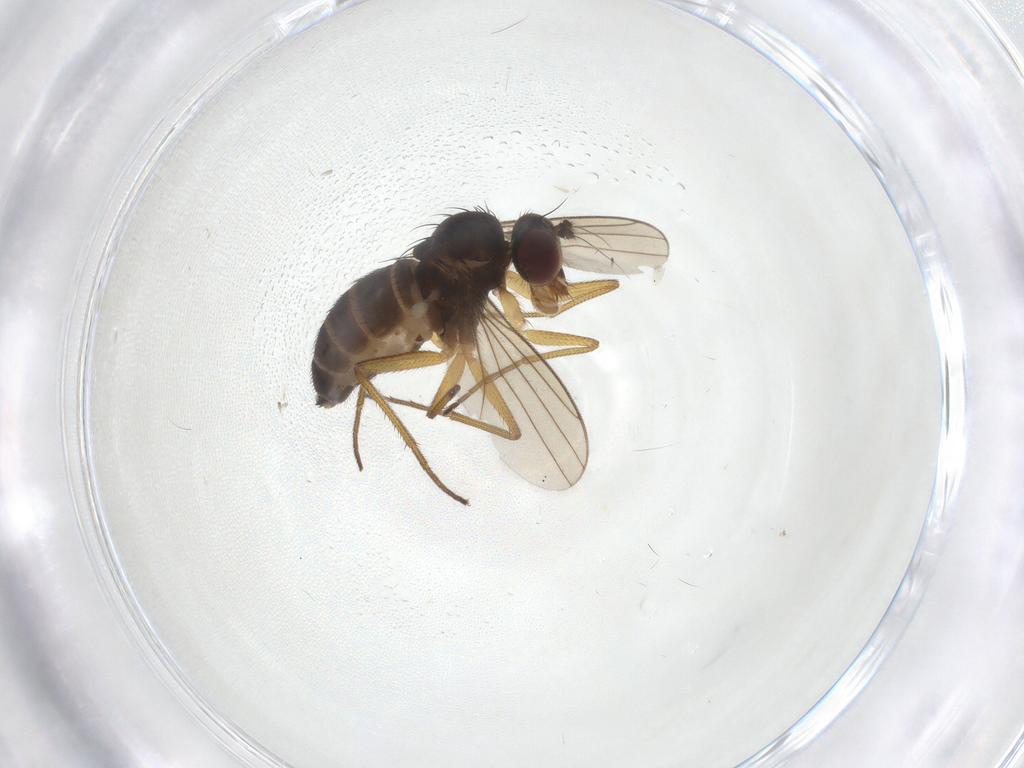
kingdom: Animalia
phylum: Arthropoda
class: Insecta
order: Diptera
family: Dolichopodidae
